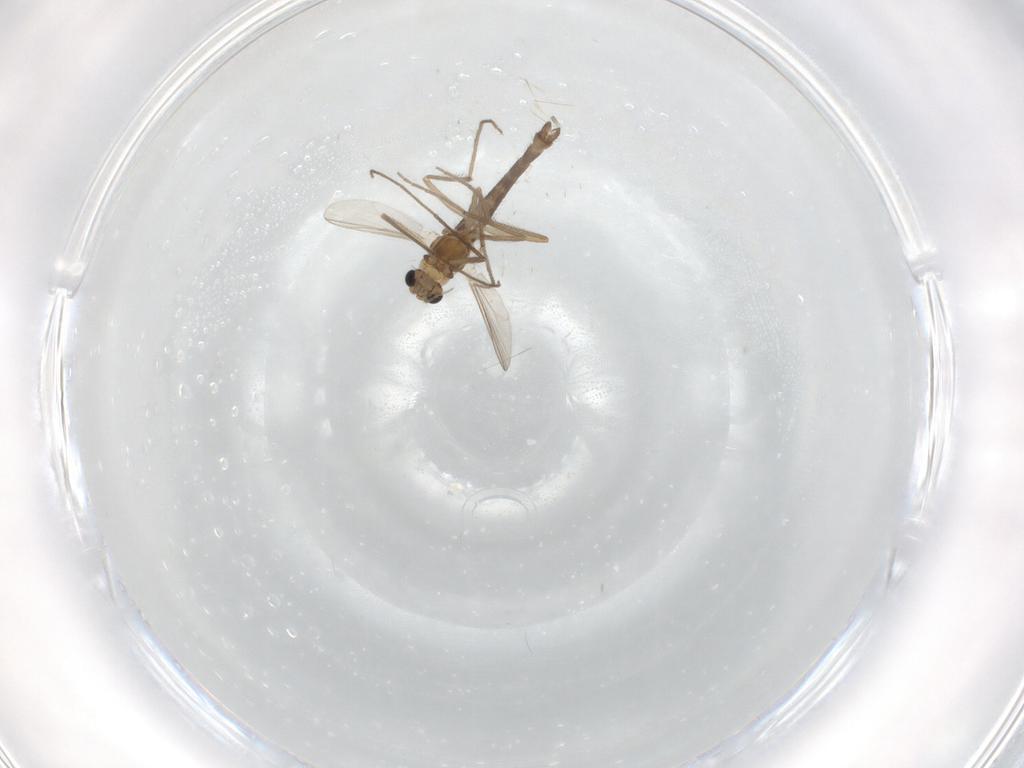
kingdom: Animalia
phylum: Arthropoda
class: Insecta
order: Diptera
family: Chironomidae
